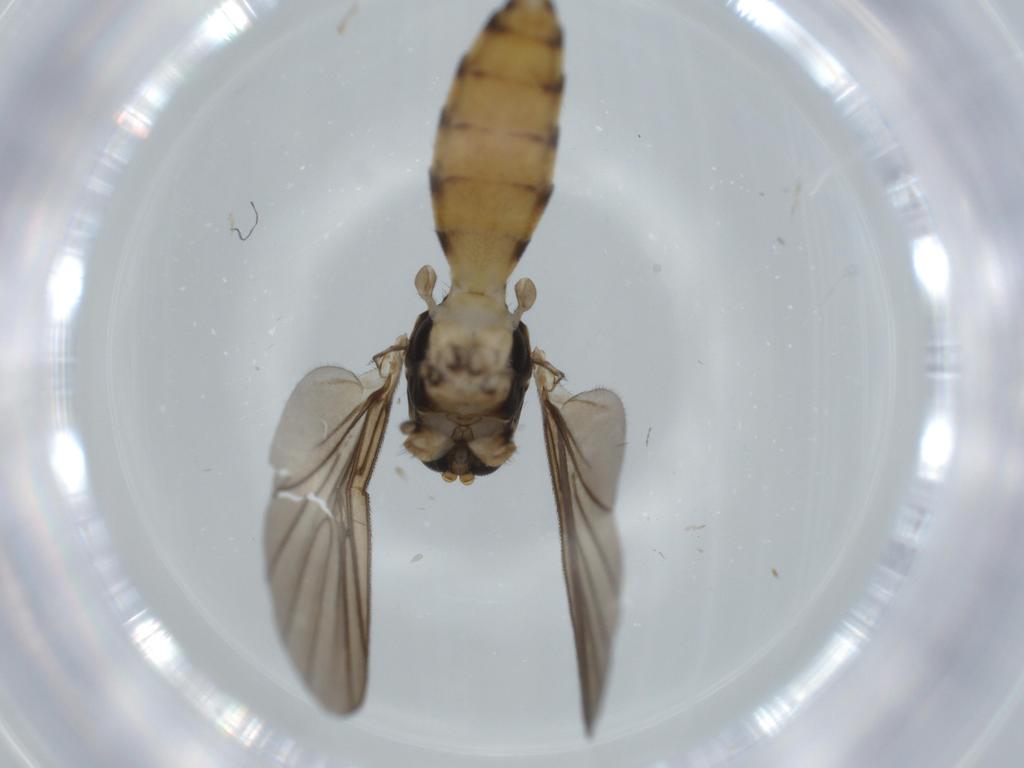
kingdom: Animalia
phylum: Arthropoda
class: Insecta
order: Diptera
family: Mycetophilidae
